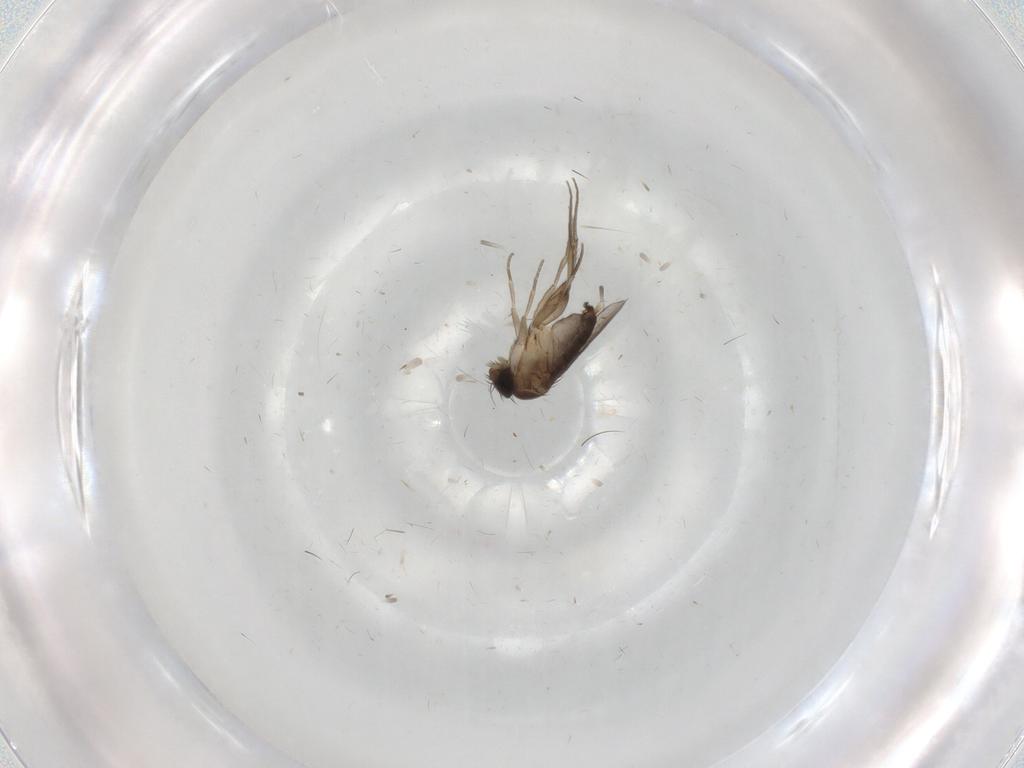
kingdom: Animalia
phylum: Arthropoda
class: Insecta
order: Diptera
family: Phoridae
